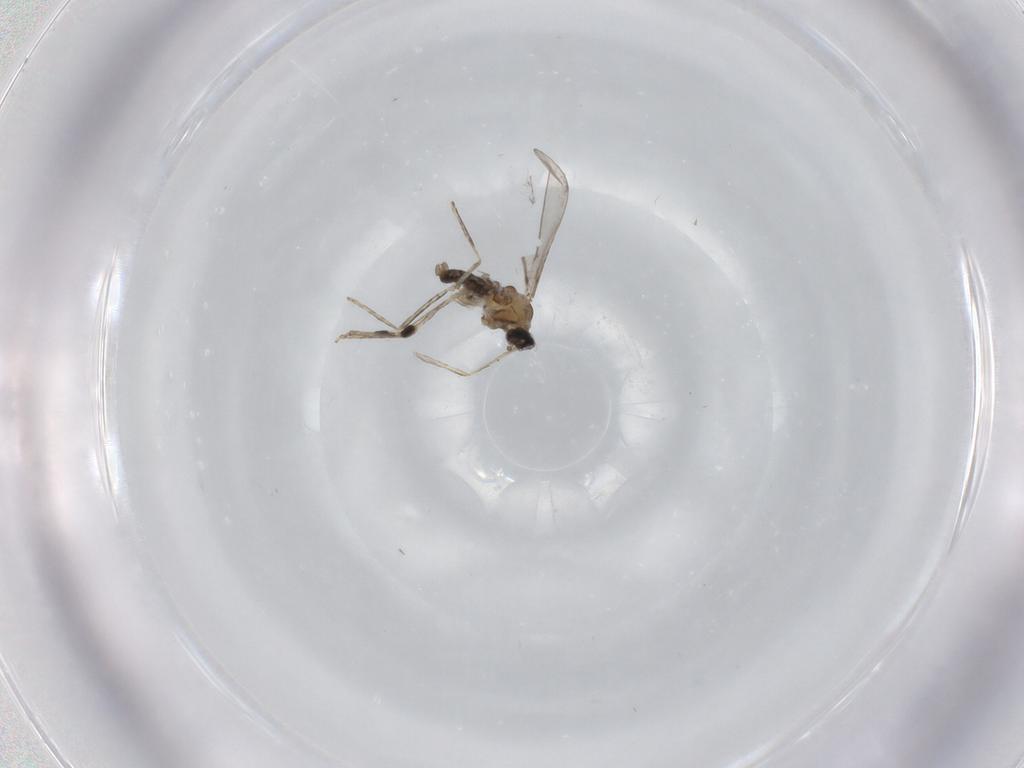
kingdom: Animalia
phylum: Arthropoda
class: Insecta
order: Diptera
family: Cecidomyiidae
